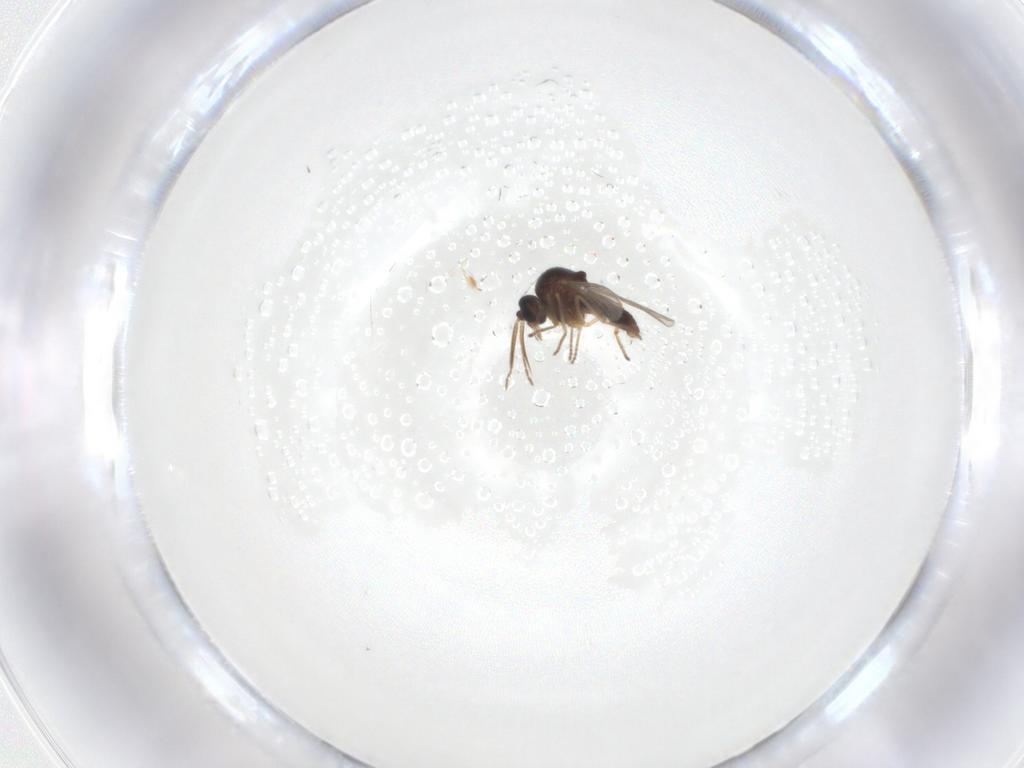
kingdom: Animalia
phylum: Arthropoda
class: Insecta
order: Diptera
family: Ceratopogonidae
